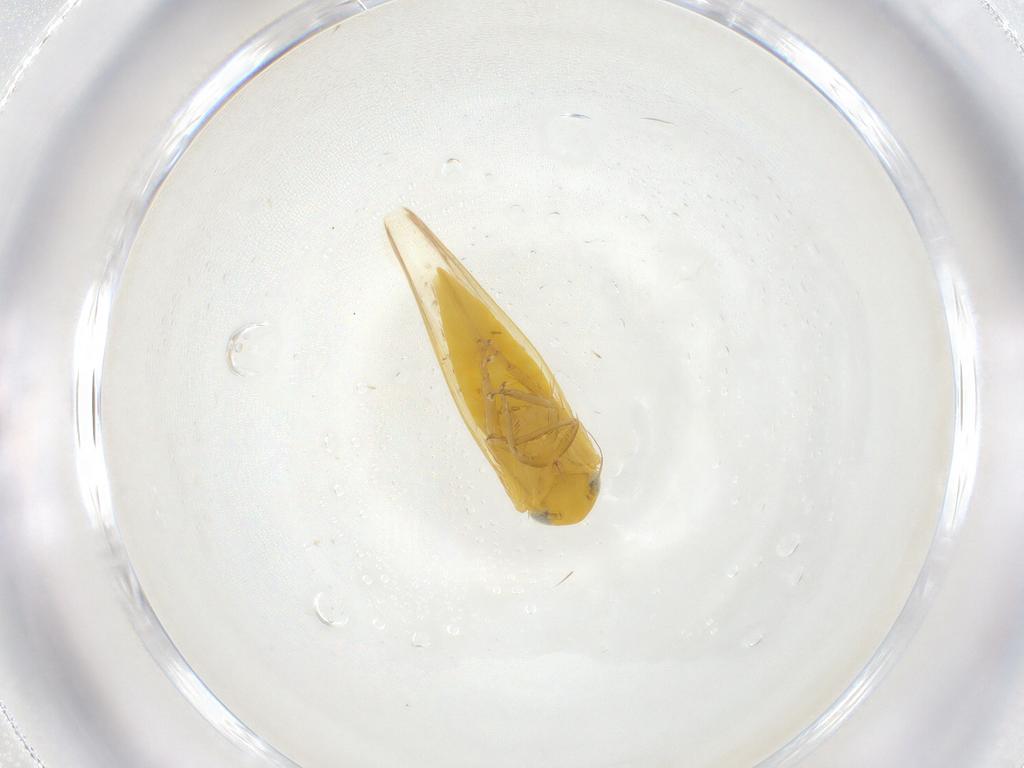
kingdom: Animalia
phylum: Arthropoda
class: Insecta
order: Hemiptera
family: Cicadellidae
